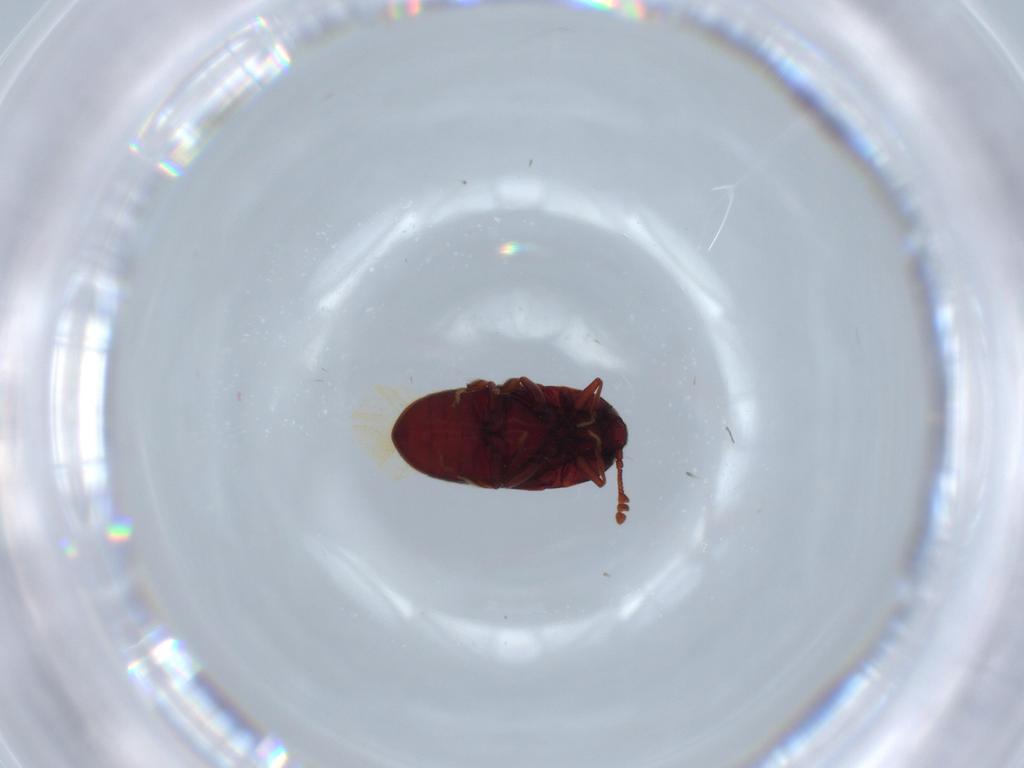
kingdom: Animalia
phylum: Arthropoda
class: Insecta
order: Coleoptera
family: Throscidae
